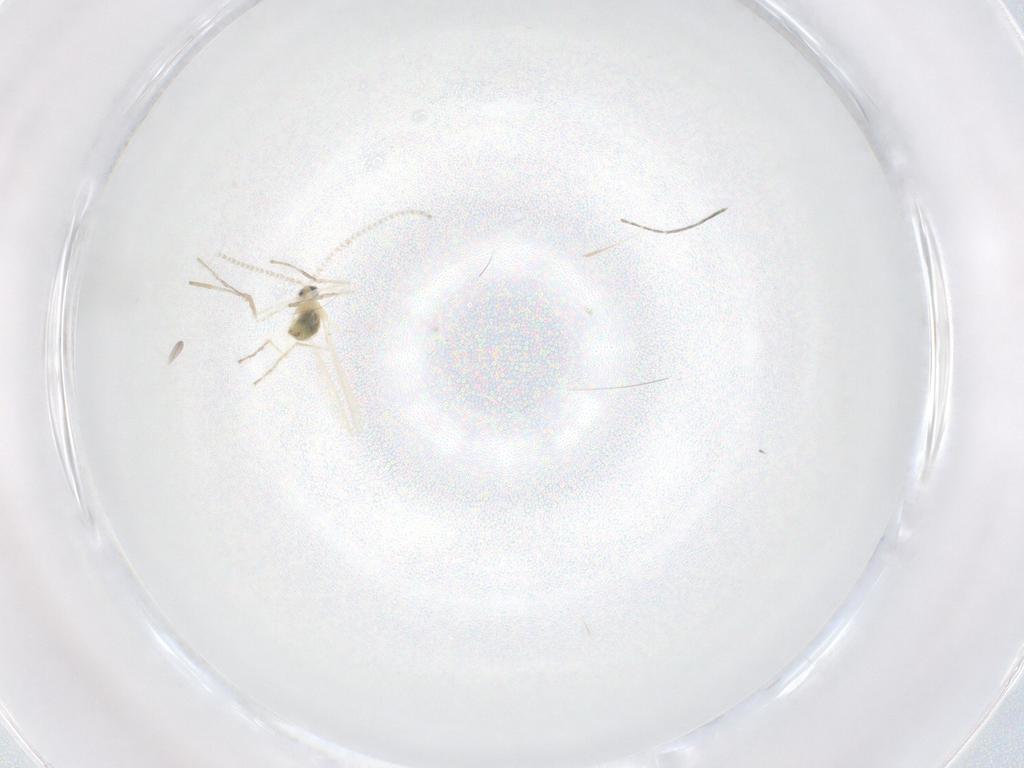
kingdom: Animalia
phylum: Arthropoda
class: Insecta
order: Diptera
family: Cecidomyiidae
